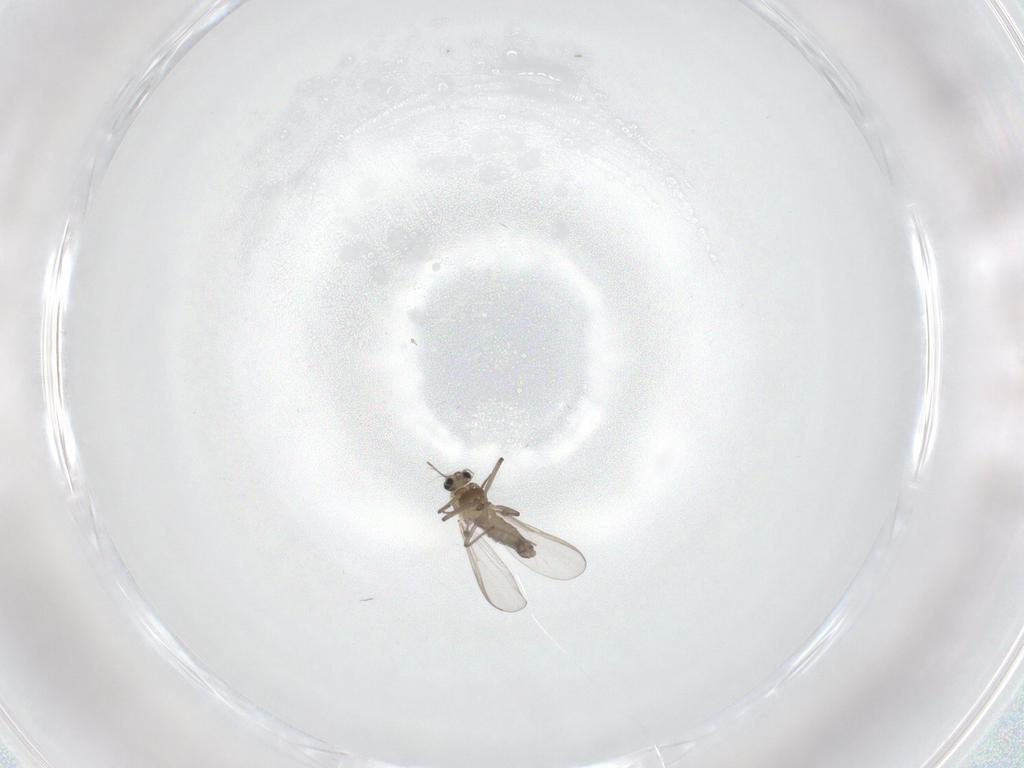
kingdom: Animalia
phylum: Arthropoda
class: Insecta
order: Diptera
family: Chironomidae
